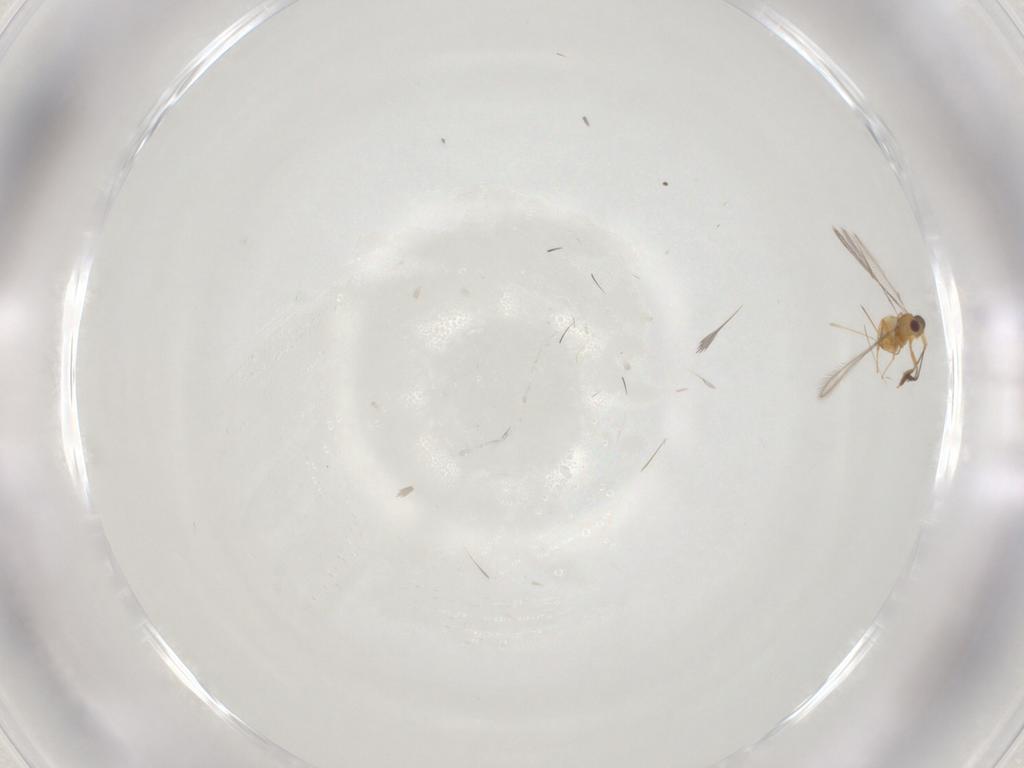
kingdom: Animalia
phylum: Arthropoda
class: Insecta
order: Hymenoptera
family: Mymaridae
